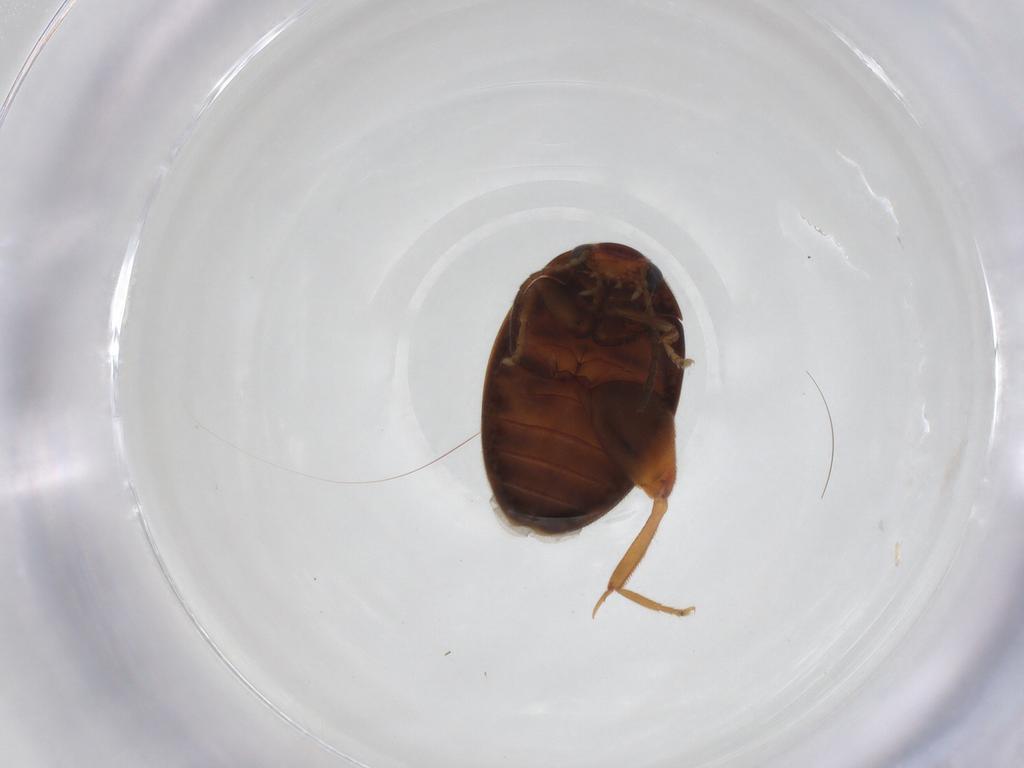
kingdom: Animalia
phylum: Arthropoda
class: Insecta
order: Coleoptera
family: Scirtidae
